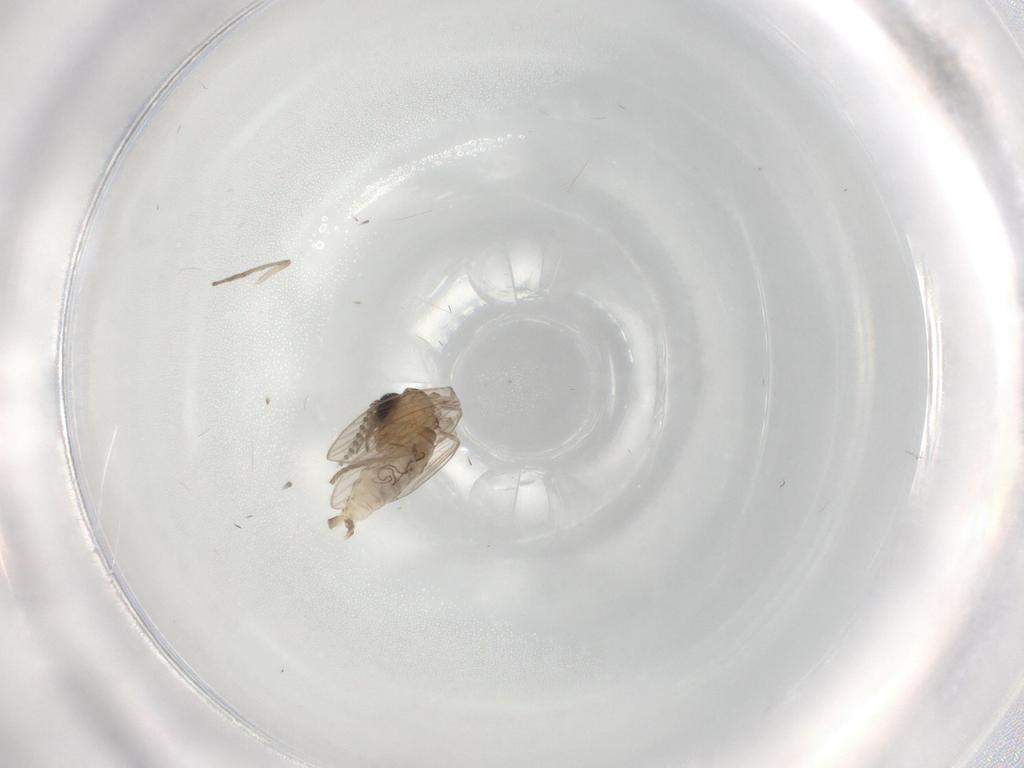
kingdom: Animalia
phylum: Arthropoda
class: Insecta
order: Diptera
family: Psychodidae
